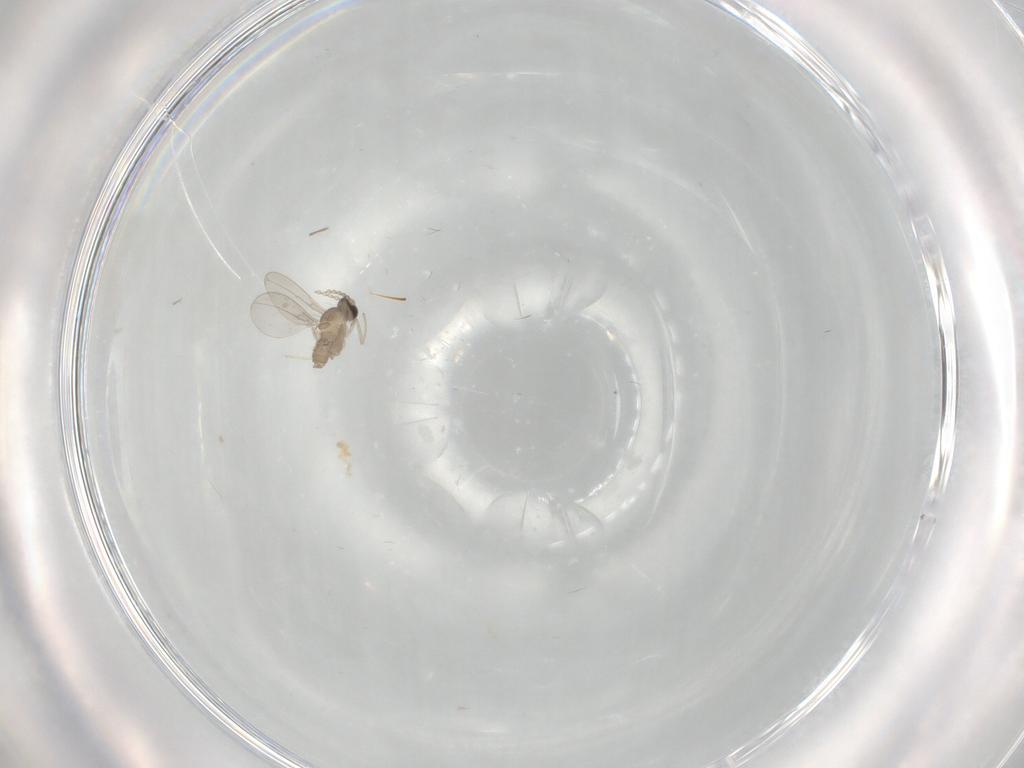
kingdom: Animalia
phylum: Arthropoda
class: Insecta
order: Diptera
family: Cecidomyiidae
